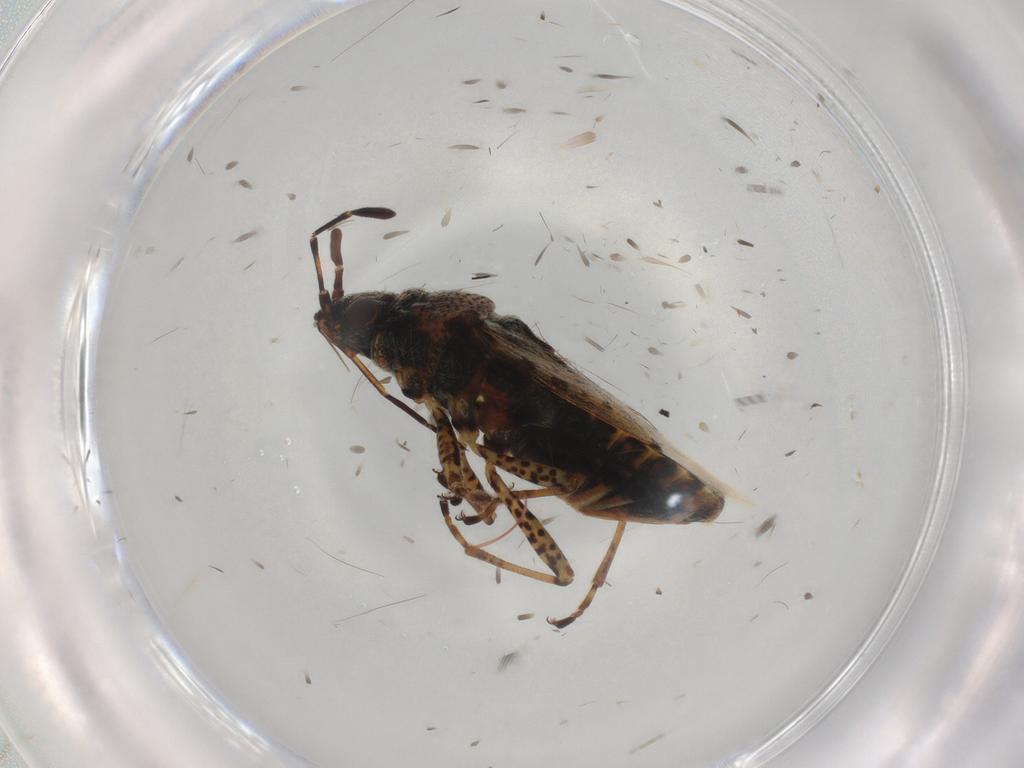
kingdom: Animalia
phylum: Arthropoda
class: Insecta
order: Hemiptera
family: Lygaeidae
